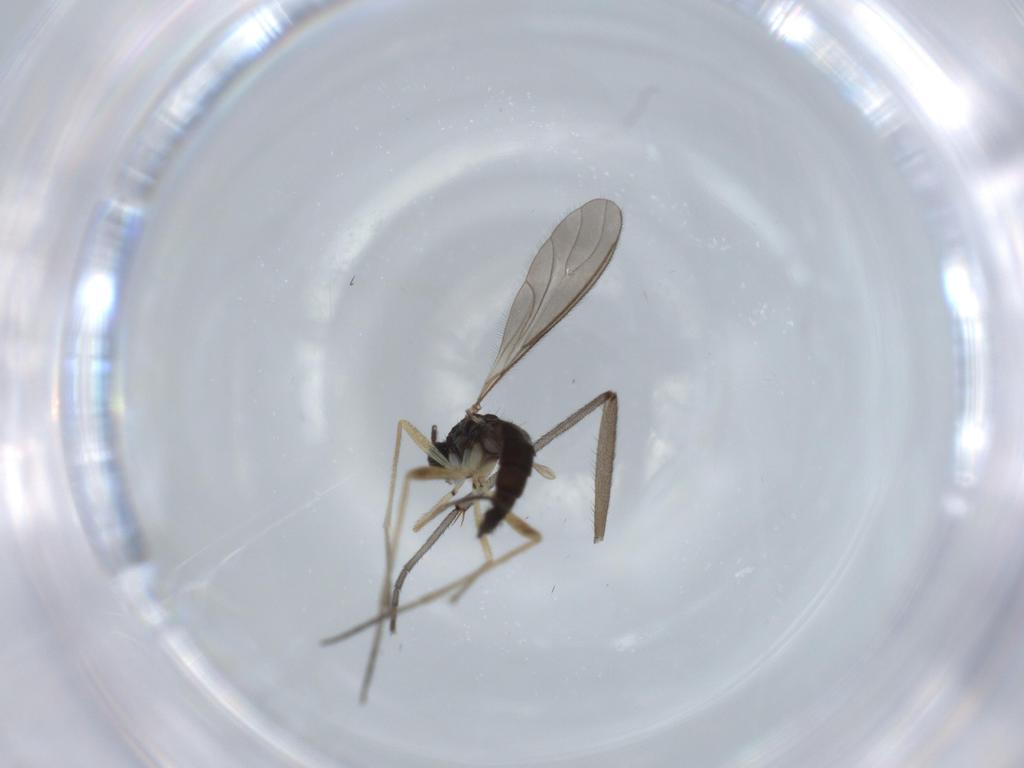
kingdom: Animalia
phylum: Arthropoda
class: Insecta
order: Diptera
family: Sciaridae
